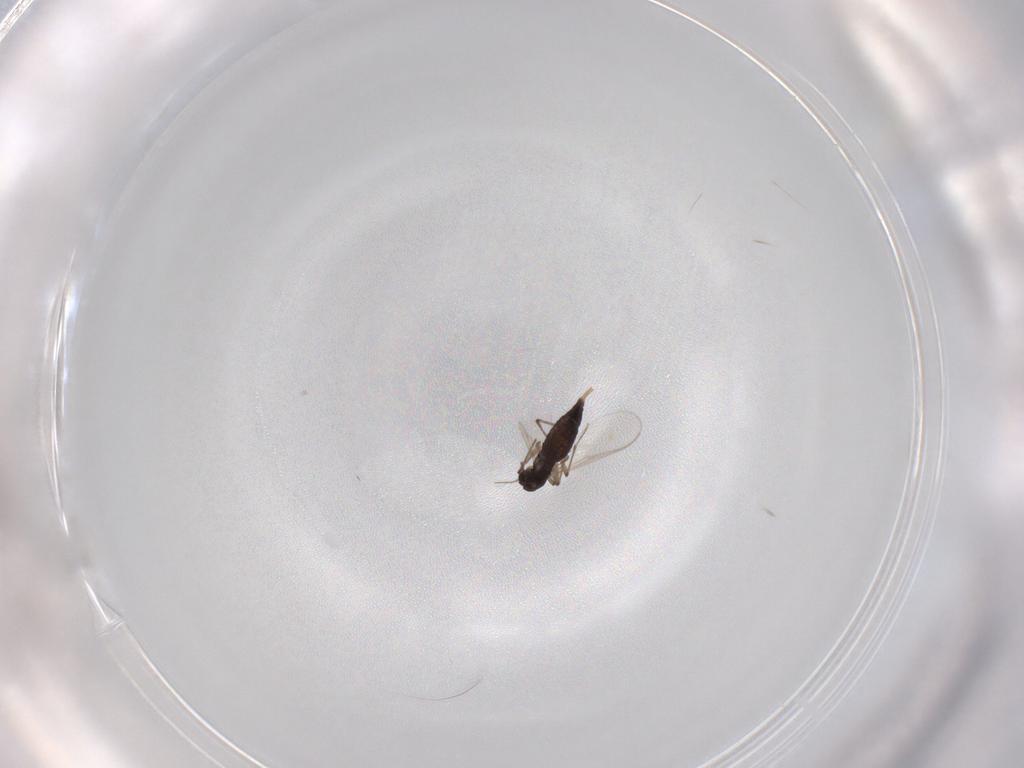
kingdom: Animalia
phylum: Arthropoda
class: Insecta
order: Diptera
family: Chironomidae
